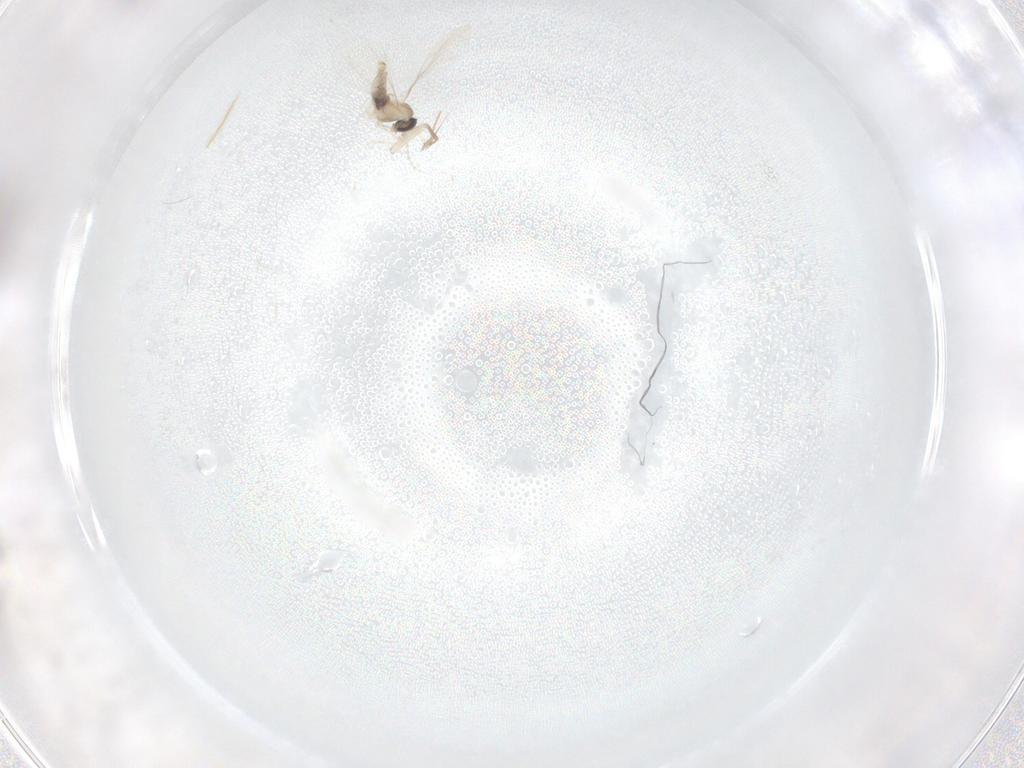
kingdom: Animalia
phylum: Arthropoda
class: Insecta
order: Diptera
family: Cecidomyiidae
